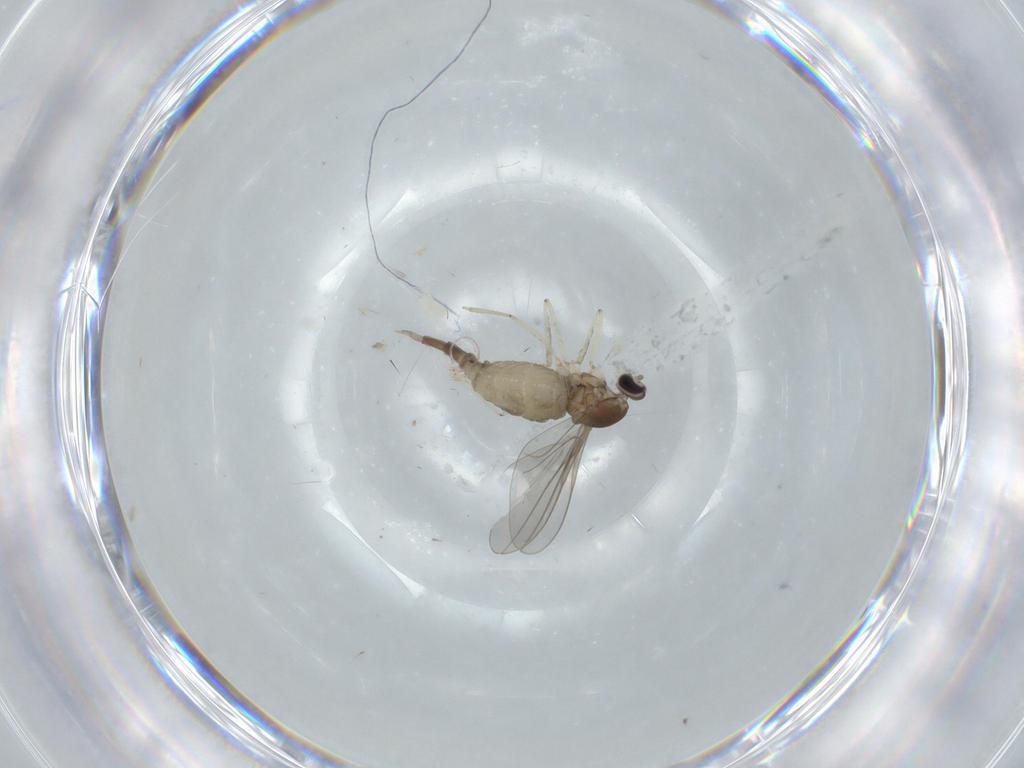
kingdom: Animalia
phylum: Arthropoda
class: Insecta
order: Diptera
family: Cecidomyiidae
